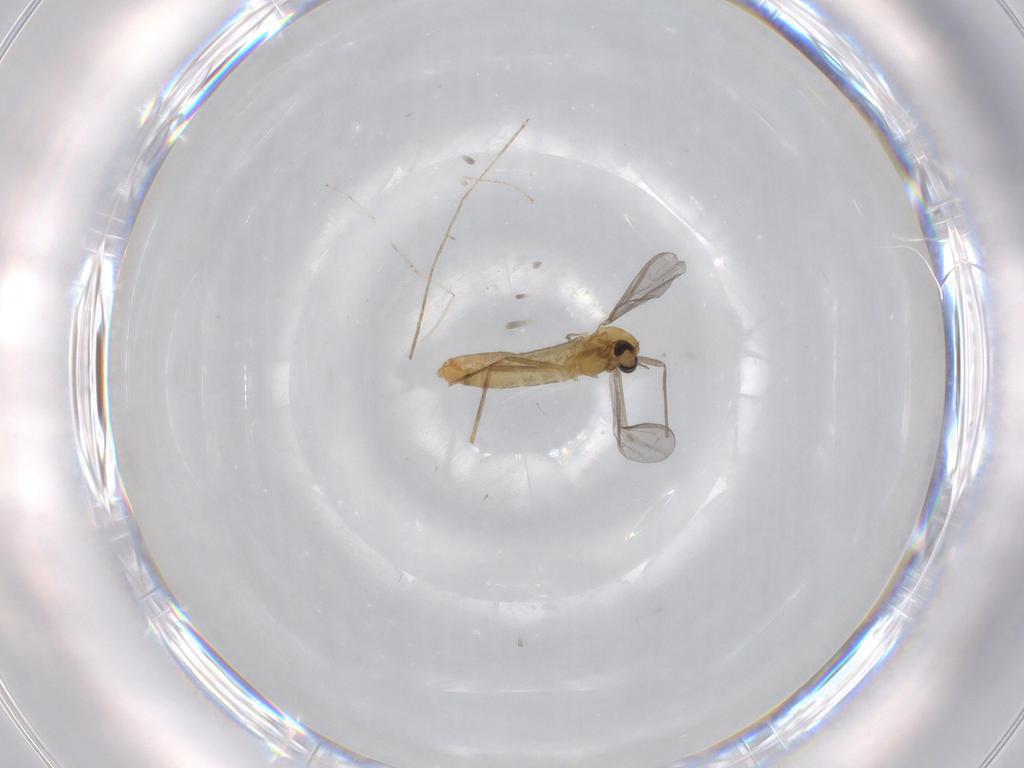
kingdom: Animalia
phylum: Arthropoda
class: Insecta
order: Diptera
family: Chironomidae
